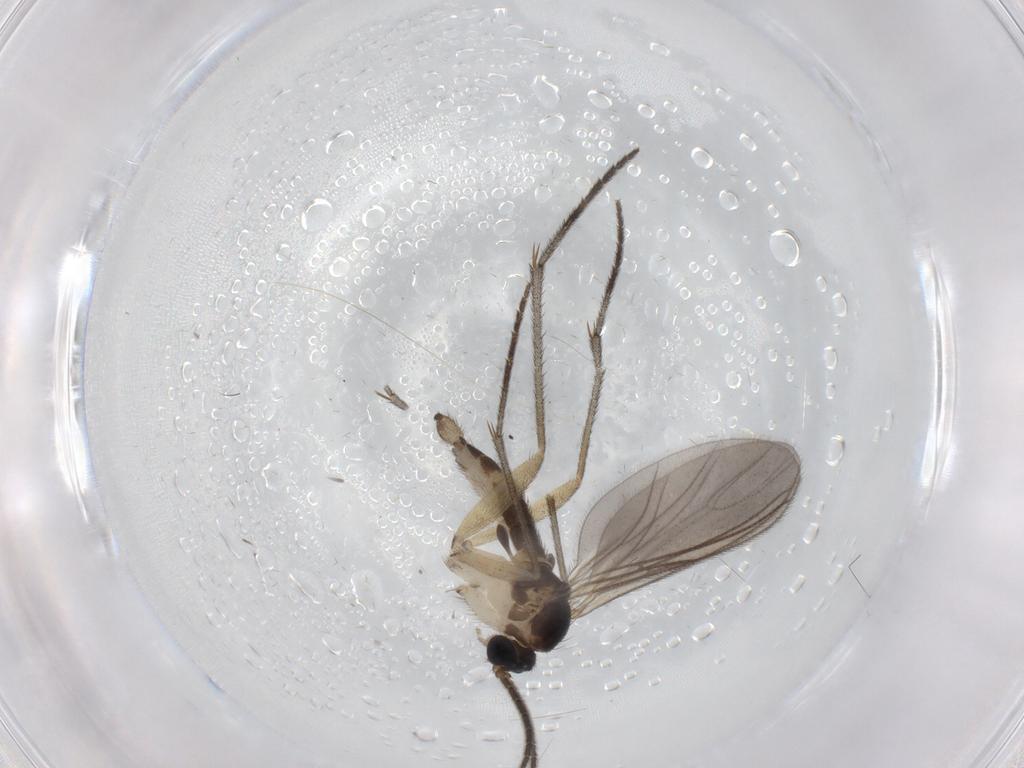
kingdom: Animalia
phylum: Arthropoda
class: Insecta
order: Diptera
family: Sciaridae
